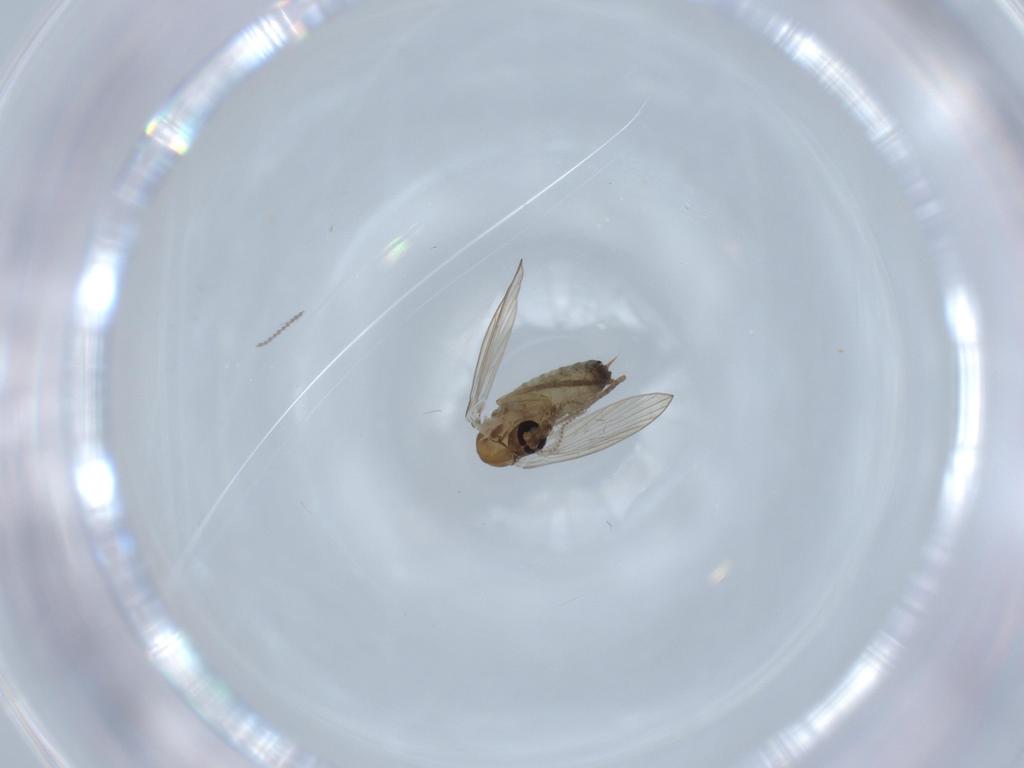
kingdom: Animalia
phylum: Arthropoda
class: Insecta
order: Diptera
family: Psychodidae
